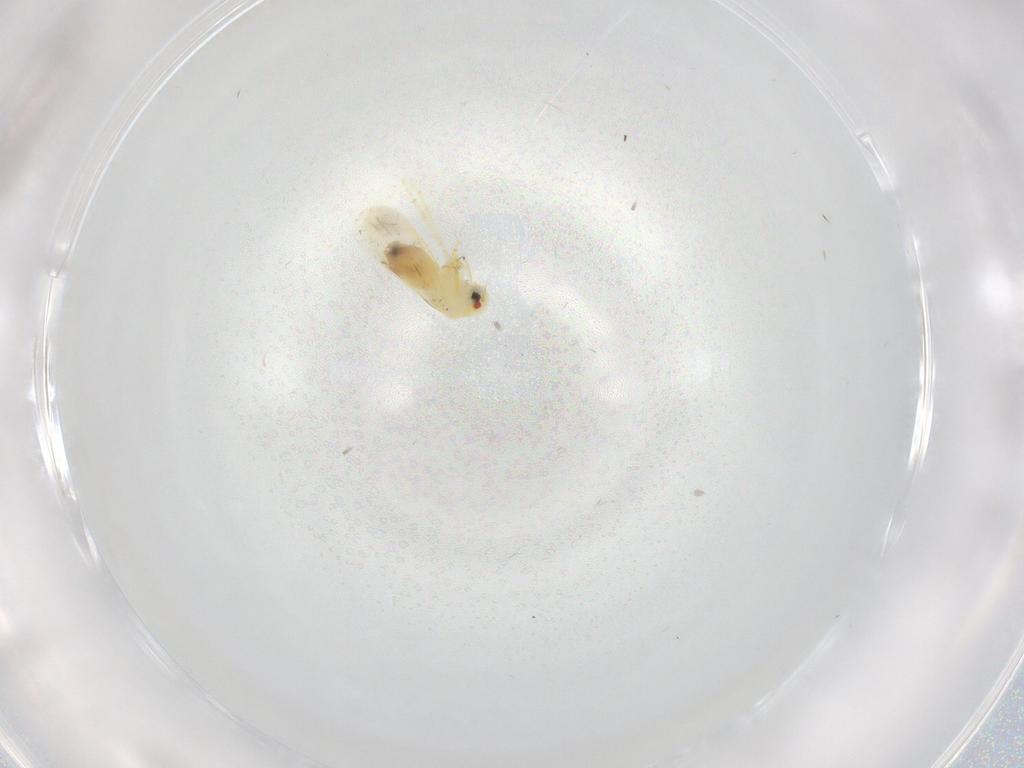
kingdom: Animalia
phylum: Arthropoda
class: Insecta
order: Hemiptera
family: Aleyrodidae
